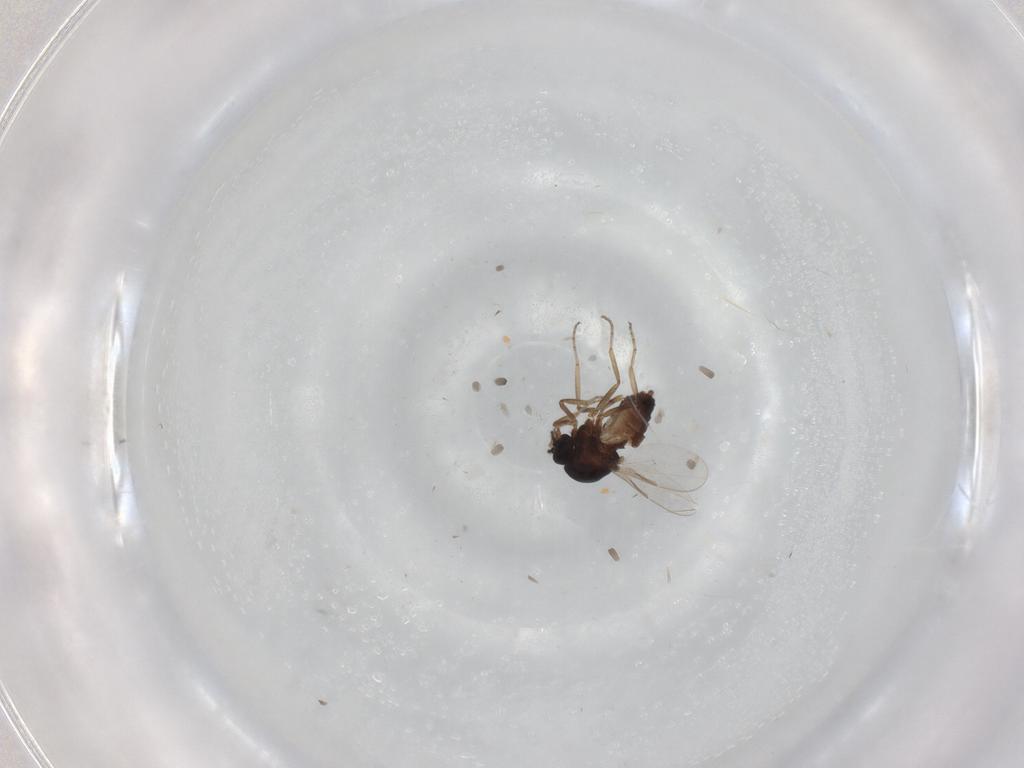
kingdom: Animalia
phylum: Arthropoda
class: Insecta
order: Diptera
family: Ceratopogonidae
